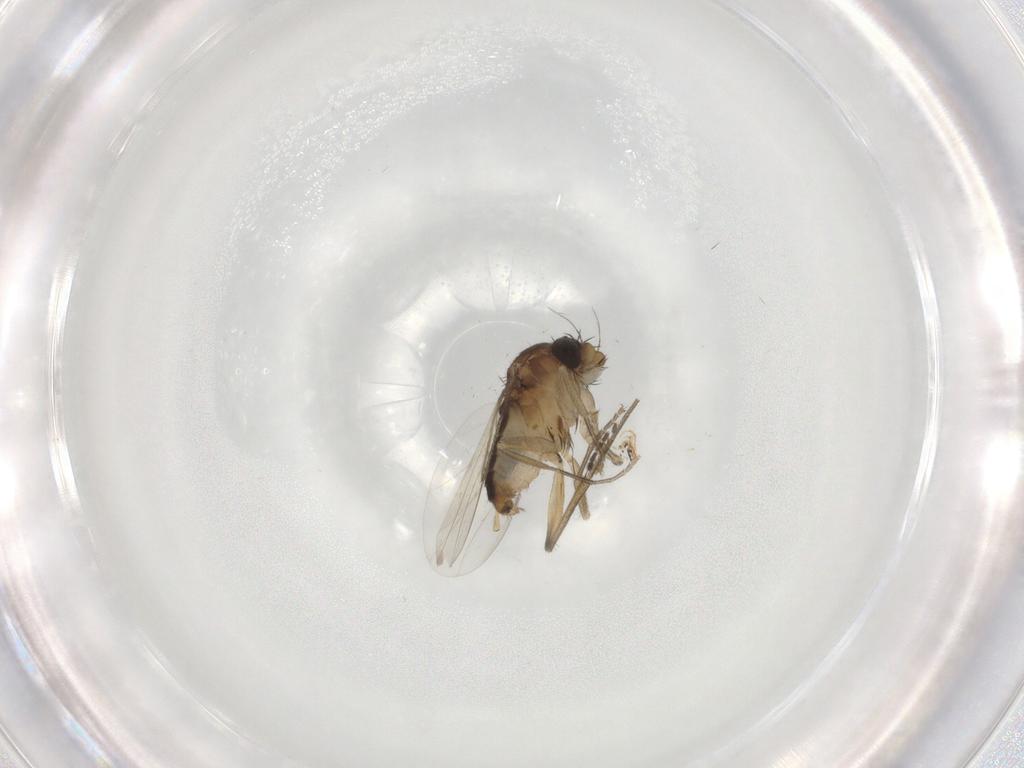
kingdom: Animalia
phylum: Arthropoda
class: Insecta
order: Diptera
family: Phoridae
